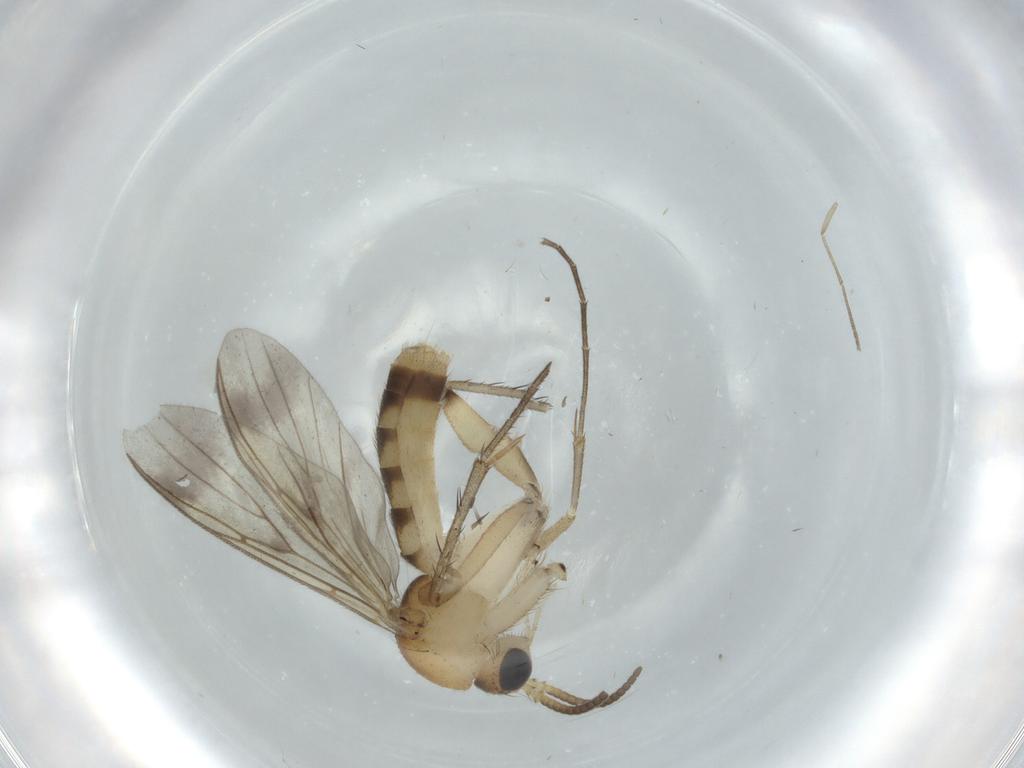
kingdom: Animalia
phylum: Arthropoda
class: Insecta
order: Diptera
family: Mycetophilidae
